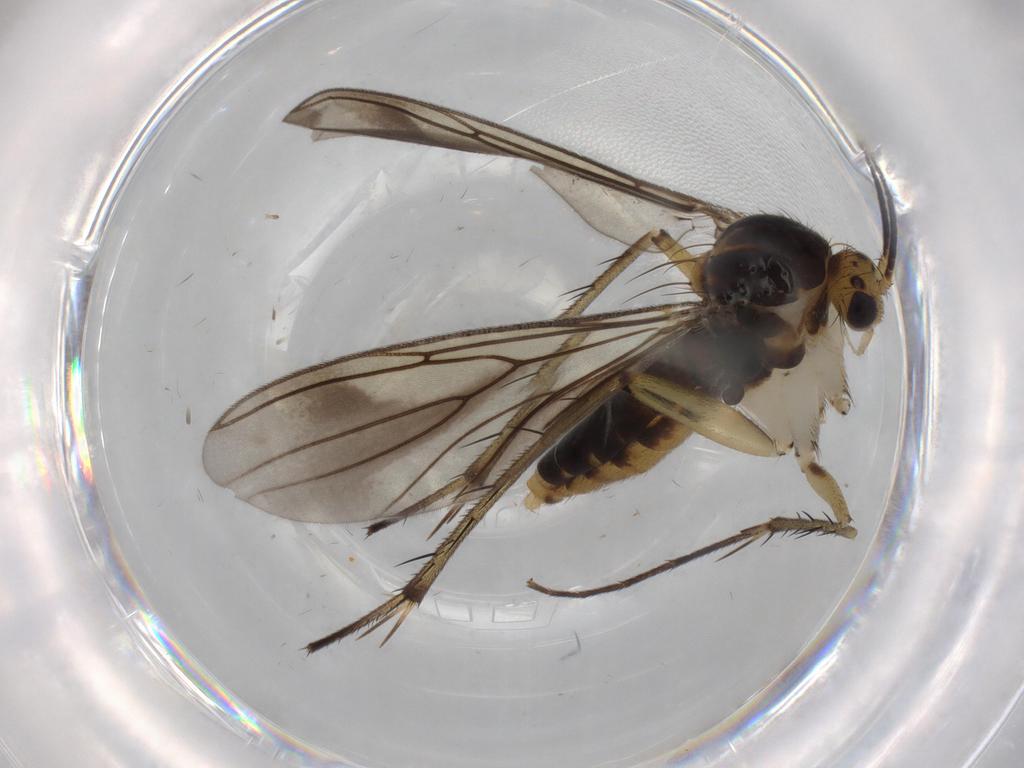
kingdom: Animalia
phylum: Arthropoda
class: Insecta
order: Diptera
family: Mycetophilidae
